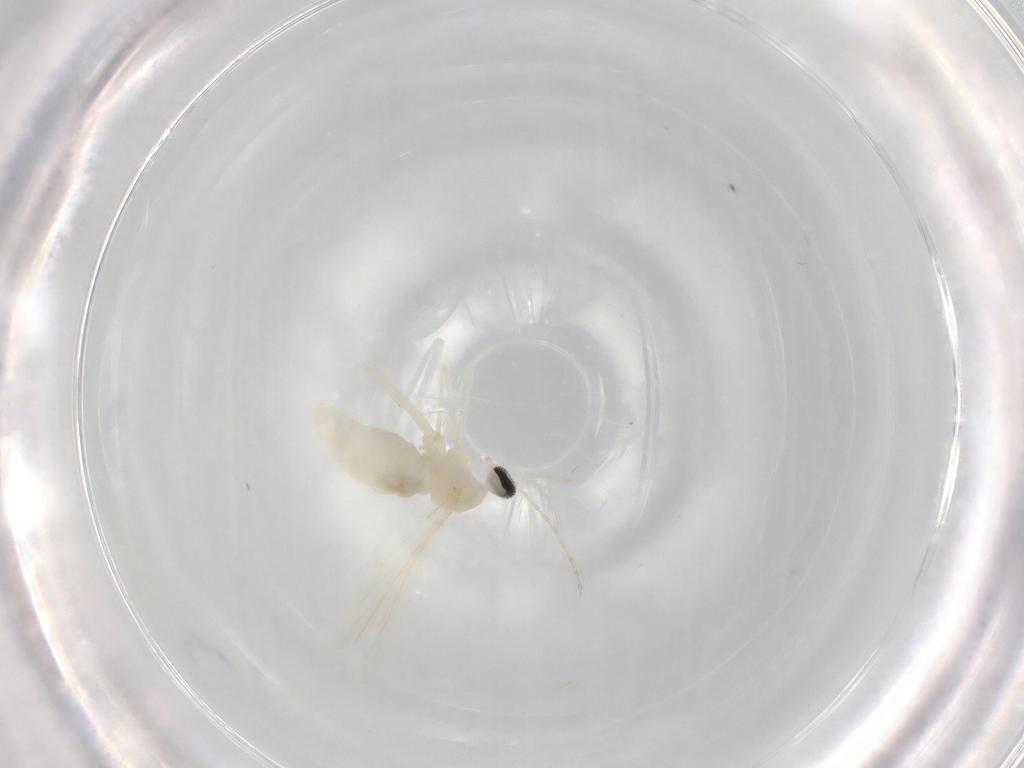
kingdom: Animalia
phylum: Arthropoda
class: Insecta
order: Diptera
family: Cecidomyiidae
